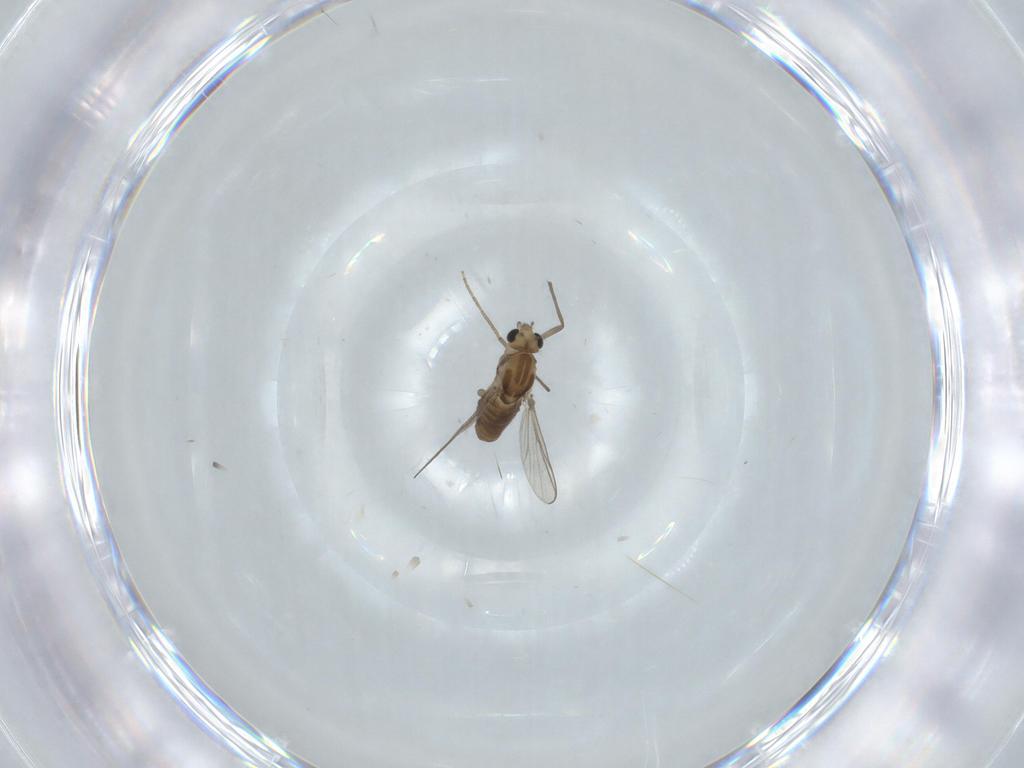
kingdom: Animalia
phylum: Arthropoda
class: Insecta
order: Diptera
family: Chironomidae
